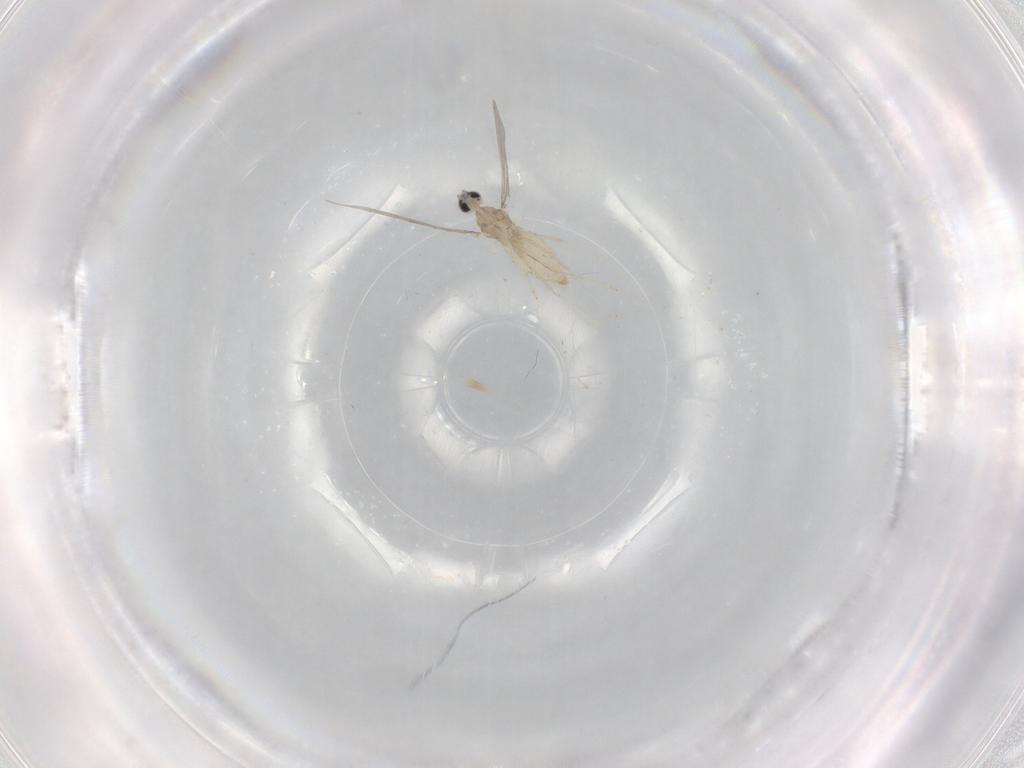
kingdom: Animalia
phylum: Arthropoda
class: Insecta
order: Diptera
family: Cecidomyiidae
